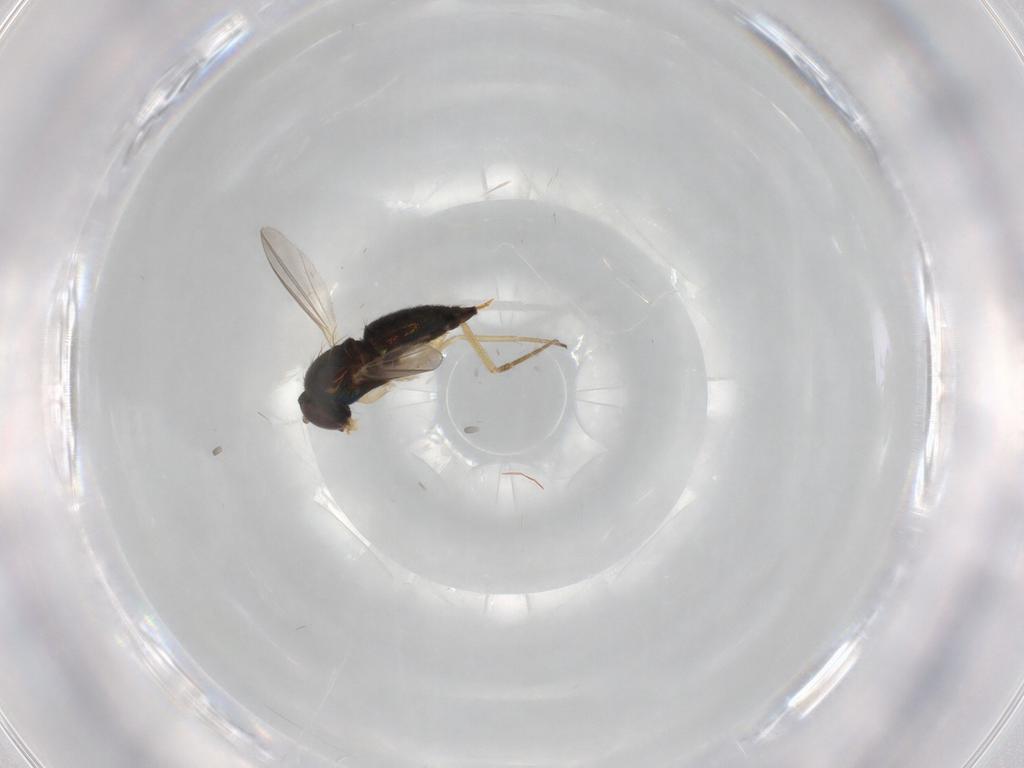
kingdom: Animalia
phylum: Arthropoda
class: Insecta
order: Diptera
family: Dolichopodidae
